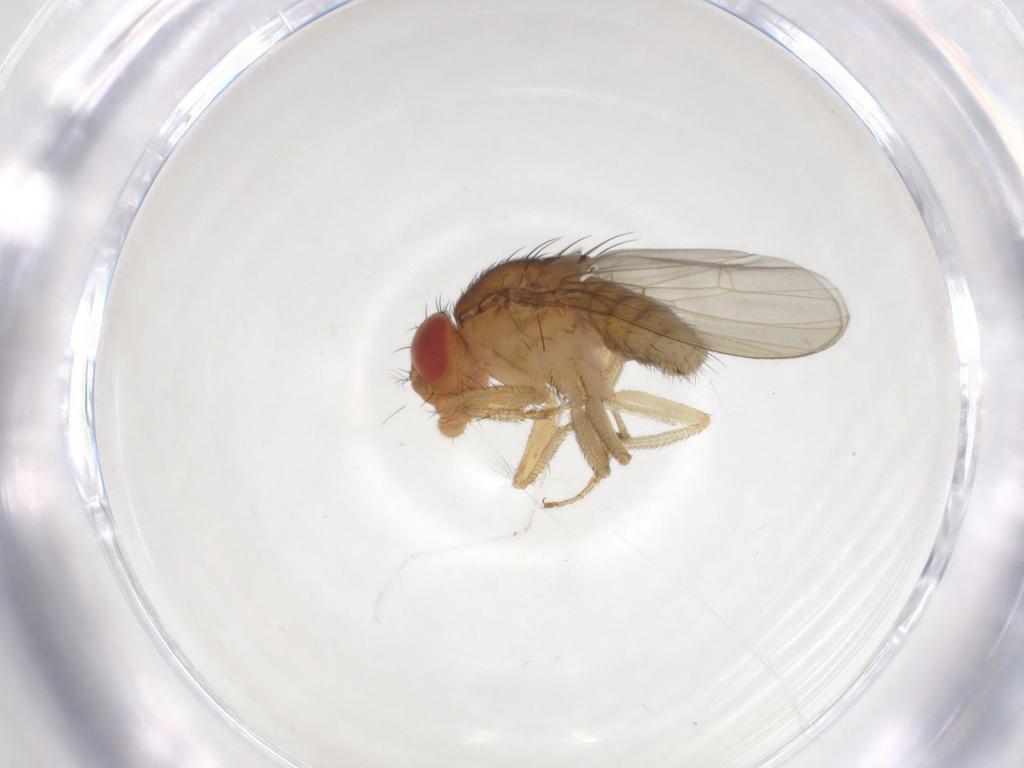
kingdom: Animalia
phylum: Arthropoda
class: Insecta
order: Diptera
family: Drosophilidae
